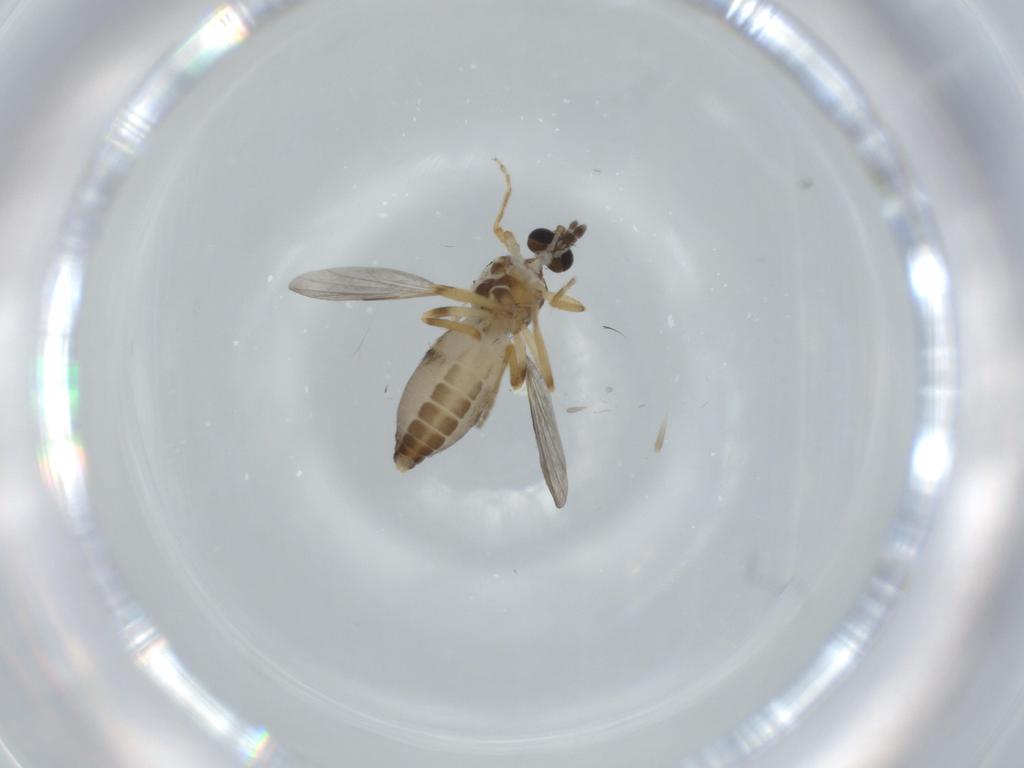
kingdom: Animalia
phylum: Arthropoda
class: Insecta
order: Diptera
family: Ceratopogonidae
